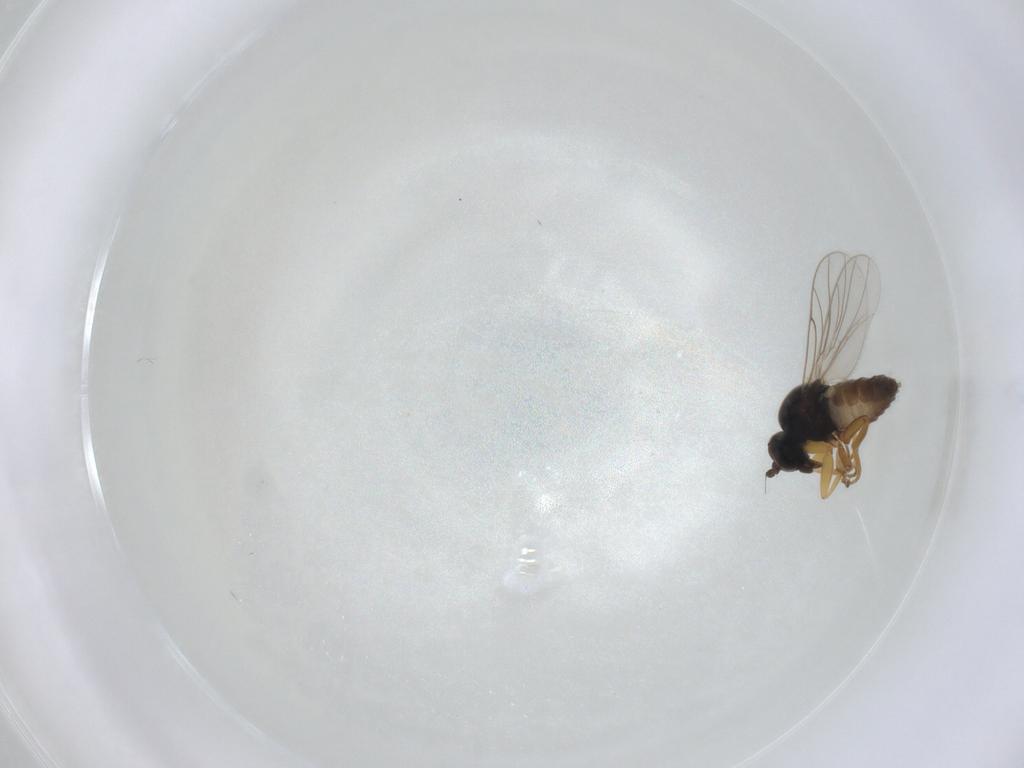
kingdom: Animalia
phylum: Arthropoda
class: Insecta
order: Diptera
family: Hybotidae
